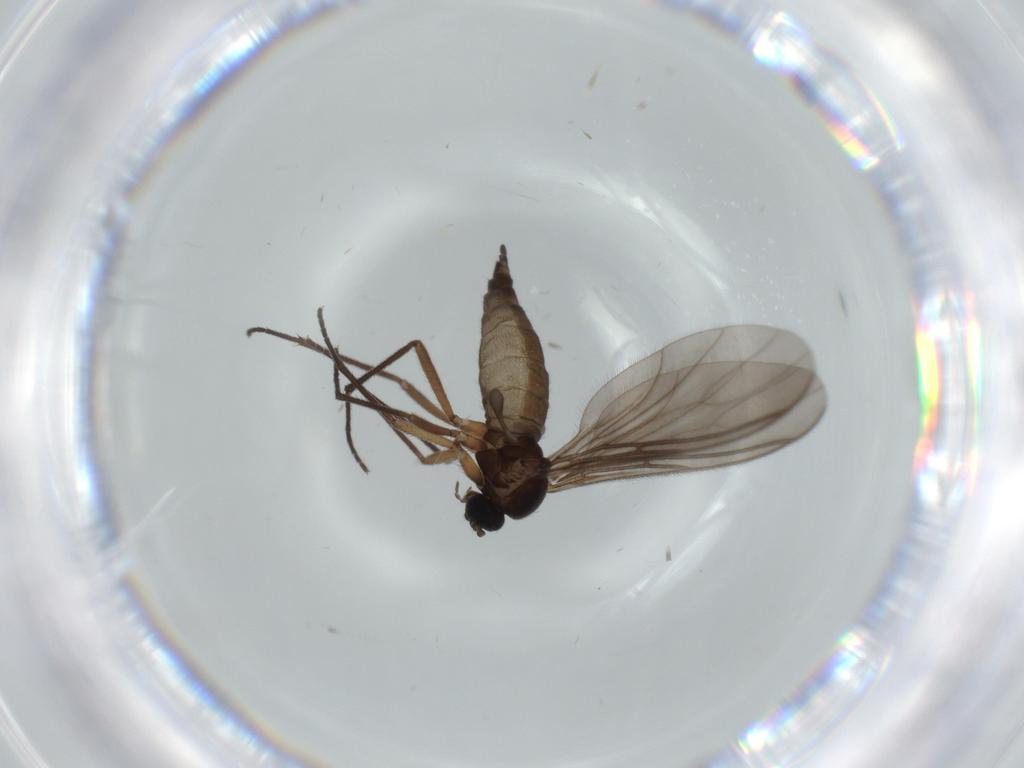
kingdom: Animalia
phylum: Arthropoda
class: Insecta
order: Diptera
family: Sciaridae
